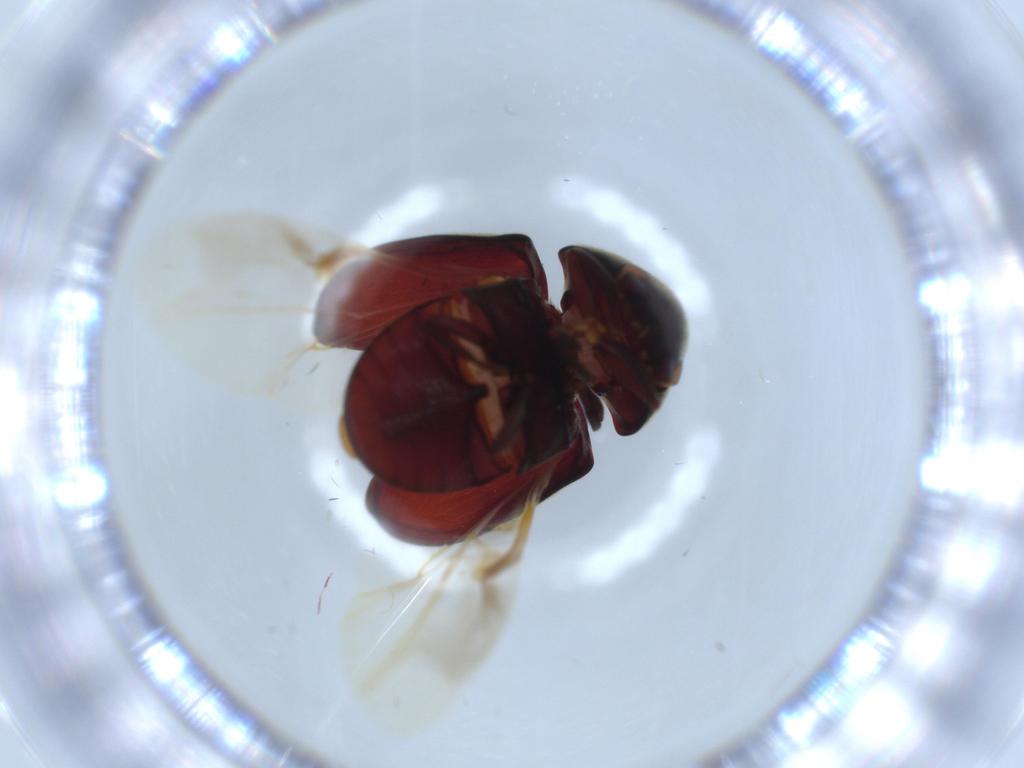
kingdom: Animalia
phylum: Arthropoda
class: Insecta
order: Coleoptera
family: Ptinidae
